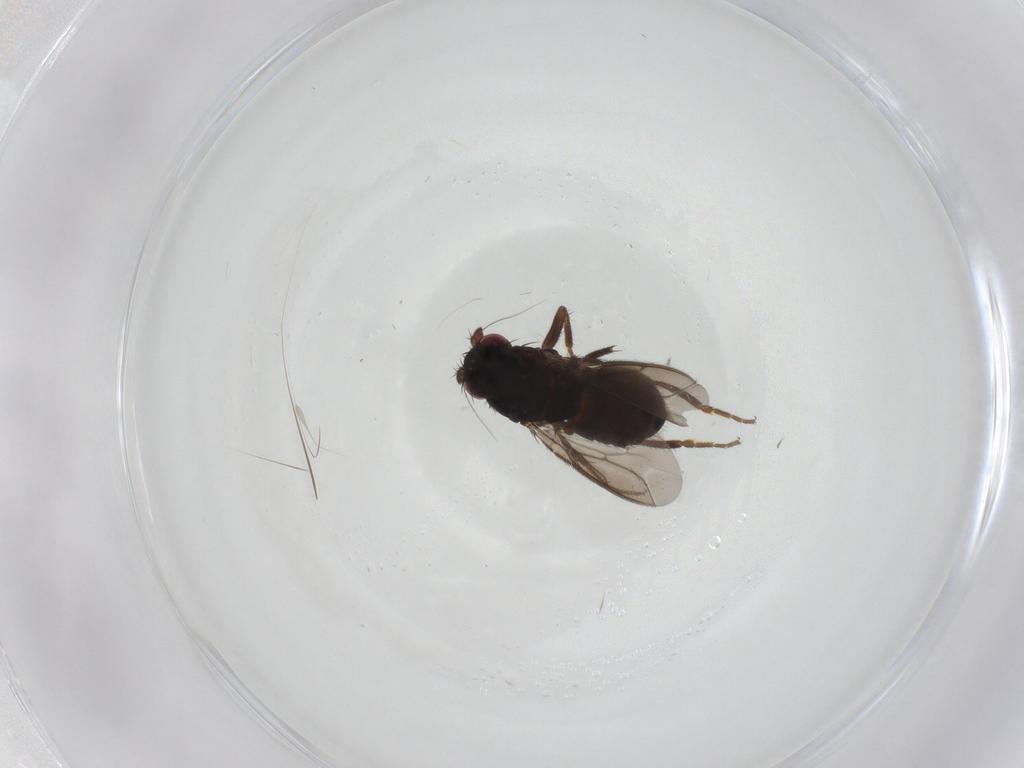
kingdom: Animalia
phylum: Arthropoda
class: Insecta
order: Diptera
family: Sphaeroceridae
